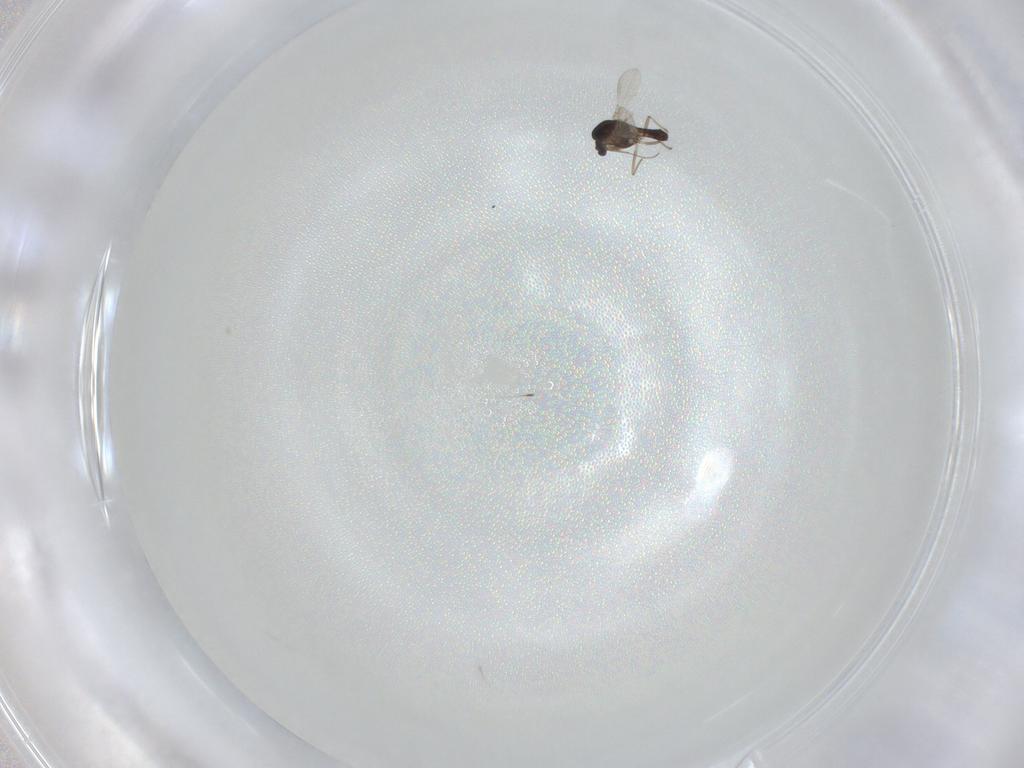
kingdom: Animalia
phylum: Arthropoda
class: Insecta
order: Diptera
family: Chironomidae
